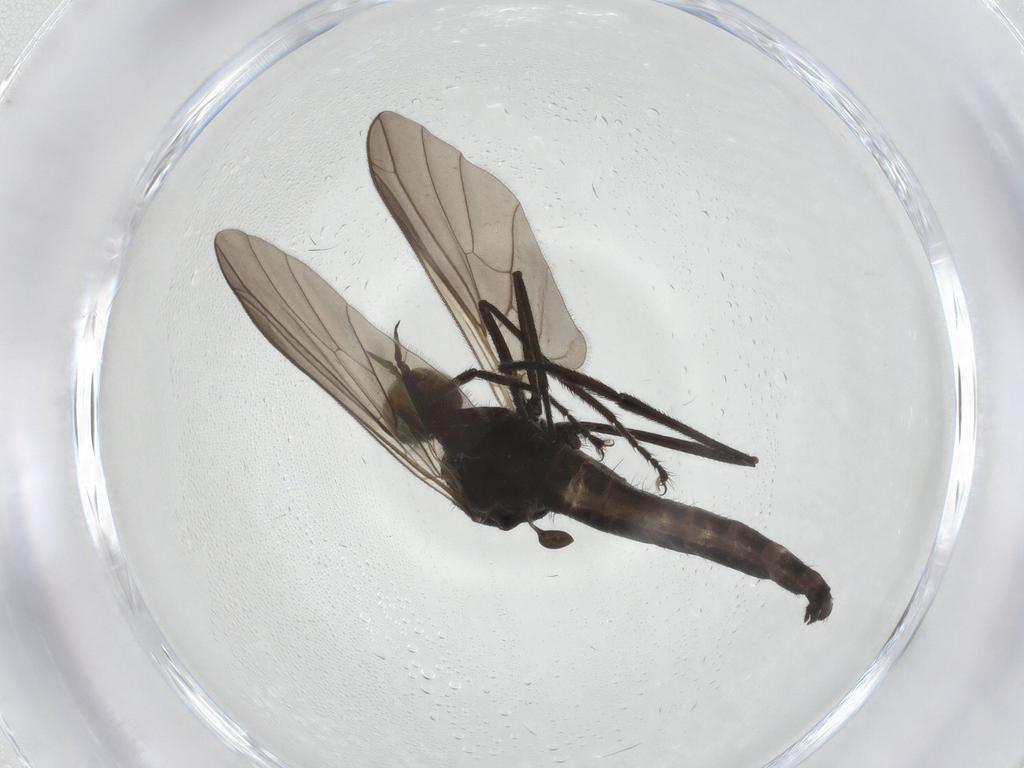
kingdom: Animalia
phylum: Arthropoda
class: Insecta
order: Diptera
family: Empididae
